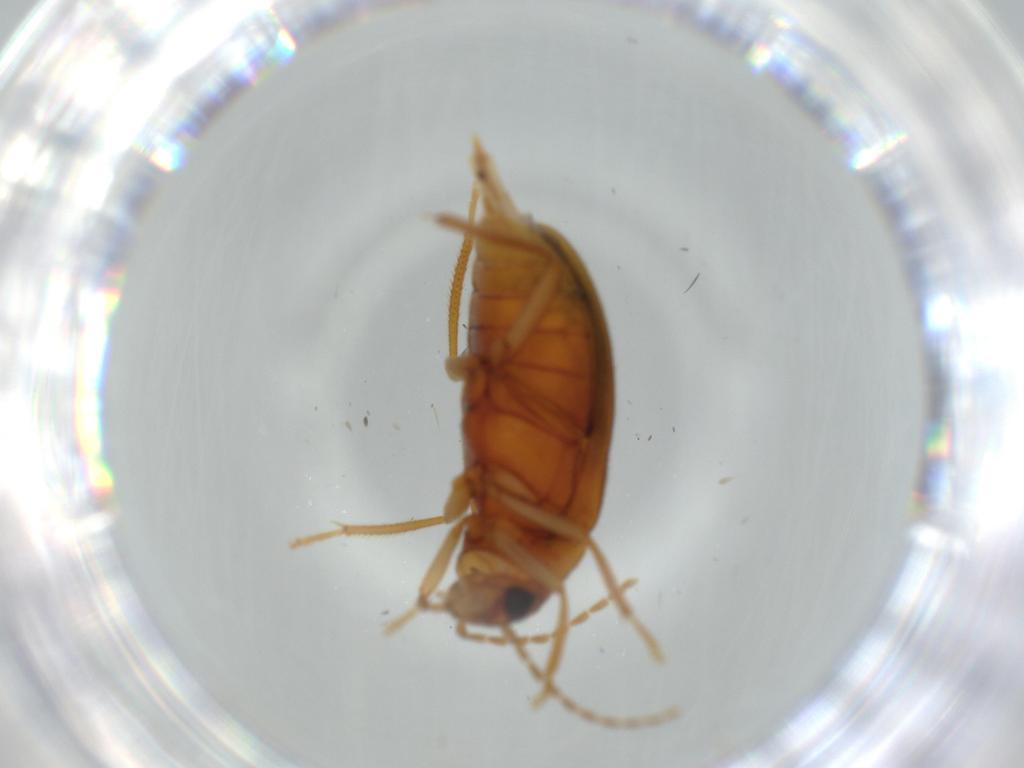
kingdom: Animalia
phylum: Arthropoda
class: Insecta
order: Coleoptera
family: Ptilodactylidae
